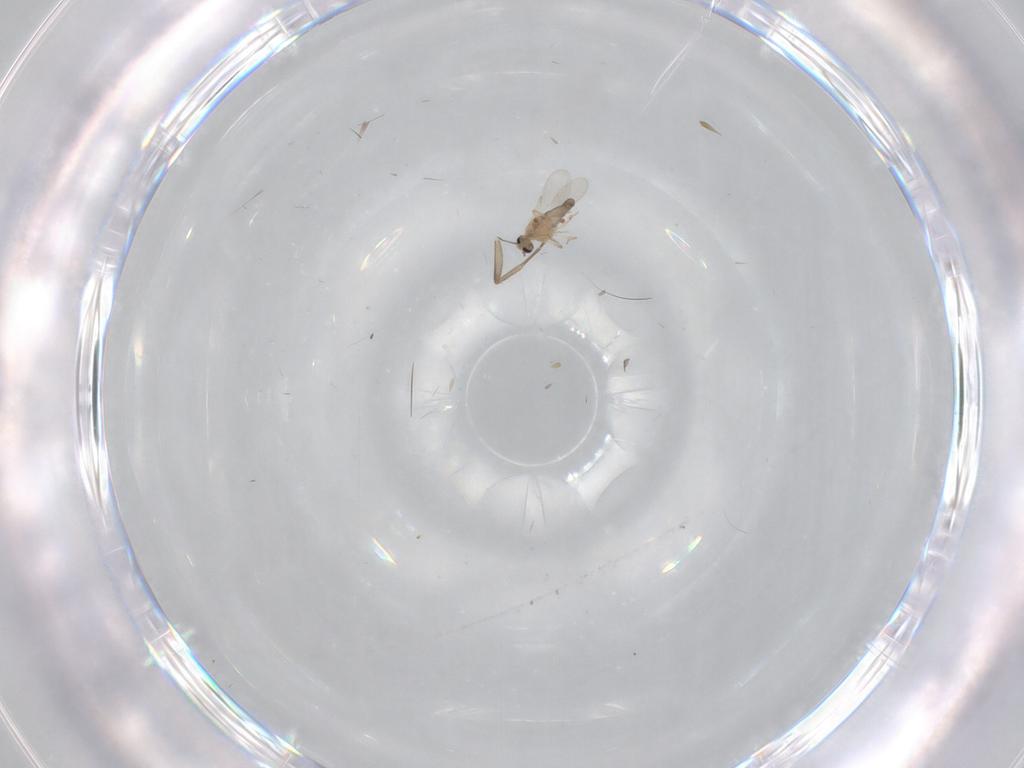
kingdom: Animalia
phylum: Arthropoda
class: Insecta
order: Diptera
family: Ceratopogonidae
